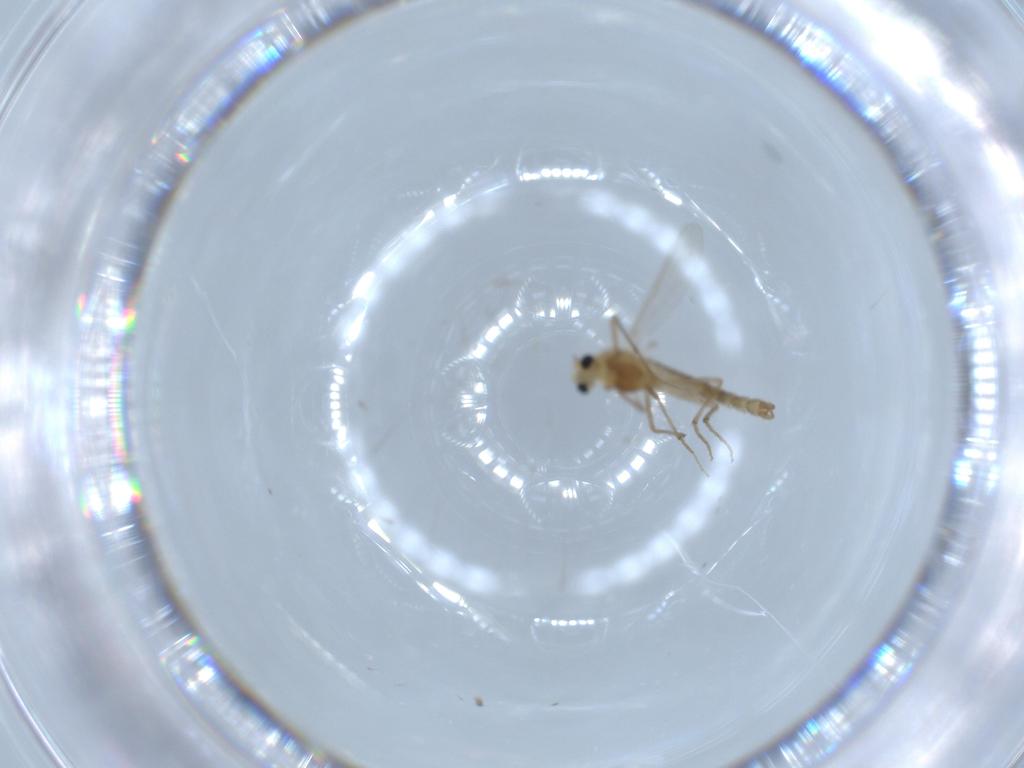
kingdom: Animalia
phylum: Arthropoda
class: Insecta
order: Diptera
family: Chironomidae
